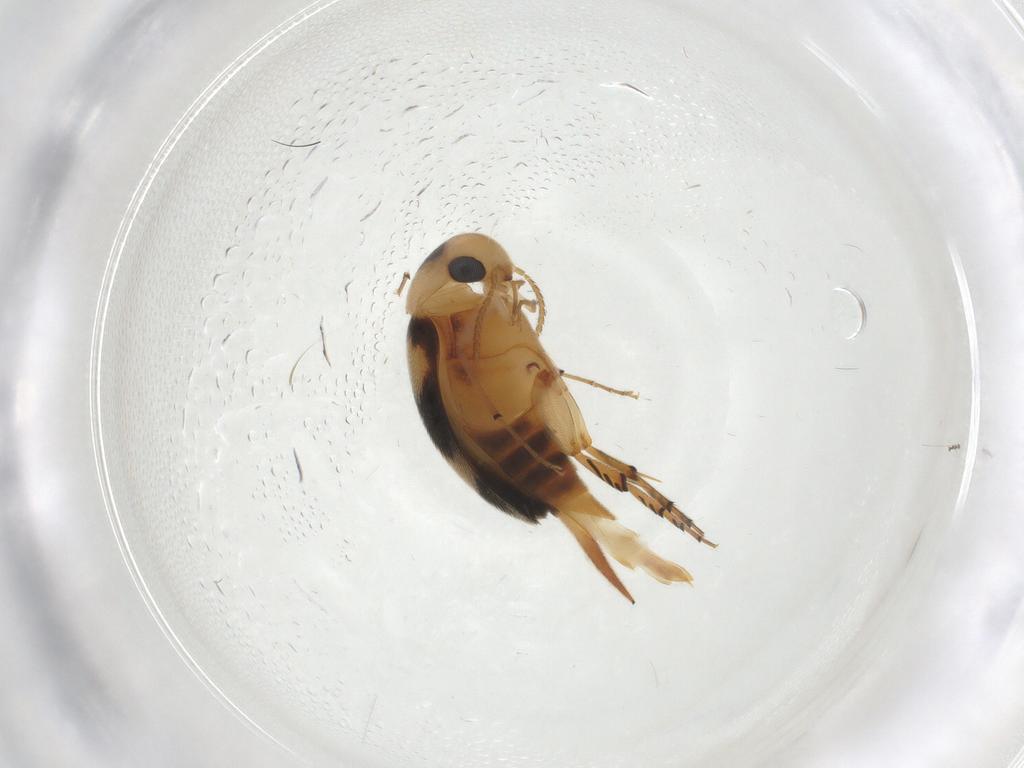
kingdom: Animalia
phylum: Arthropoda
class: Insecta
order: Coleoptera
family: Mordellidae
